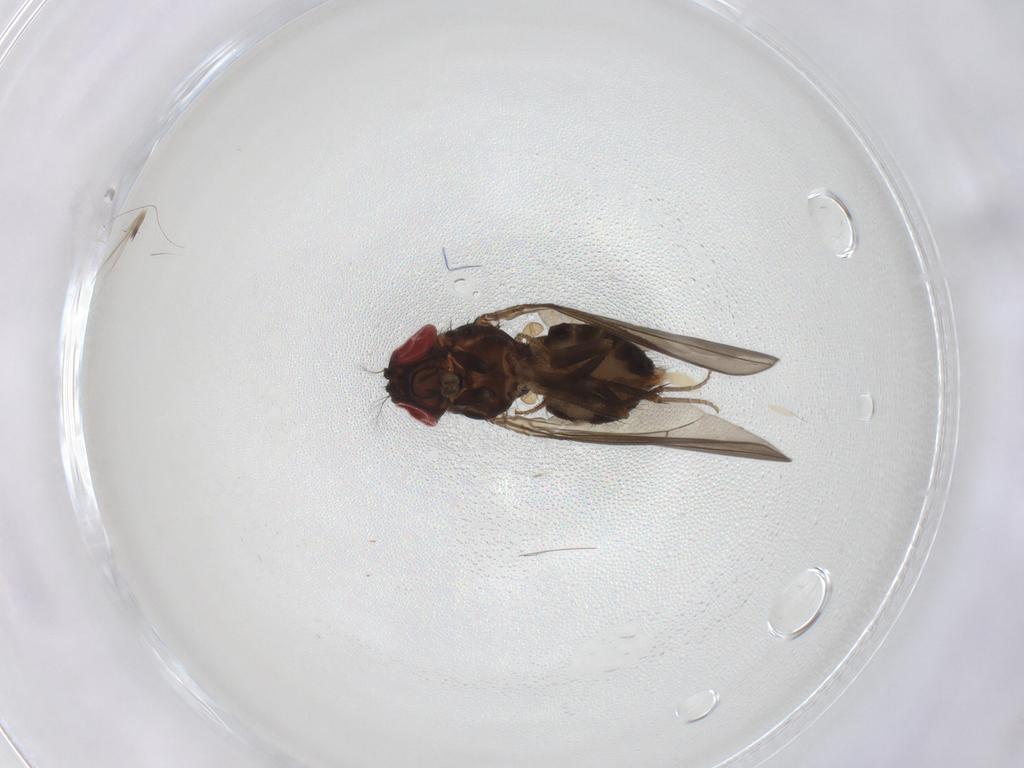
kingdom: Animalia
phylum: Arthropoda
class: Insecta
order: Diptera
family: Drosophilidae
